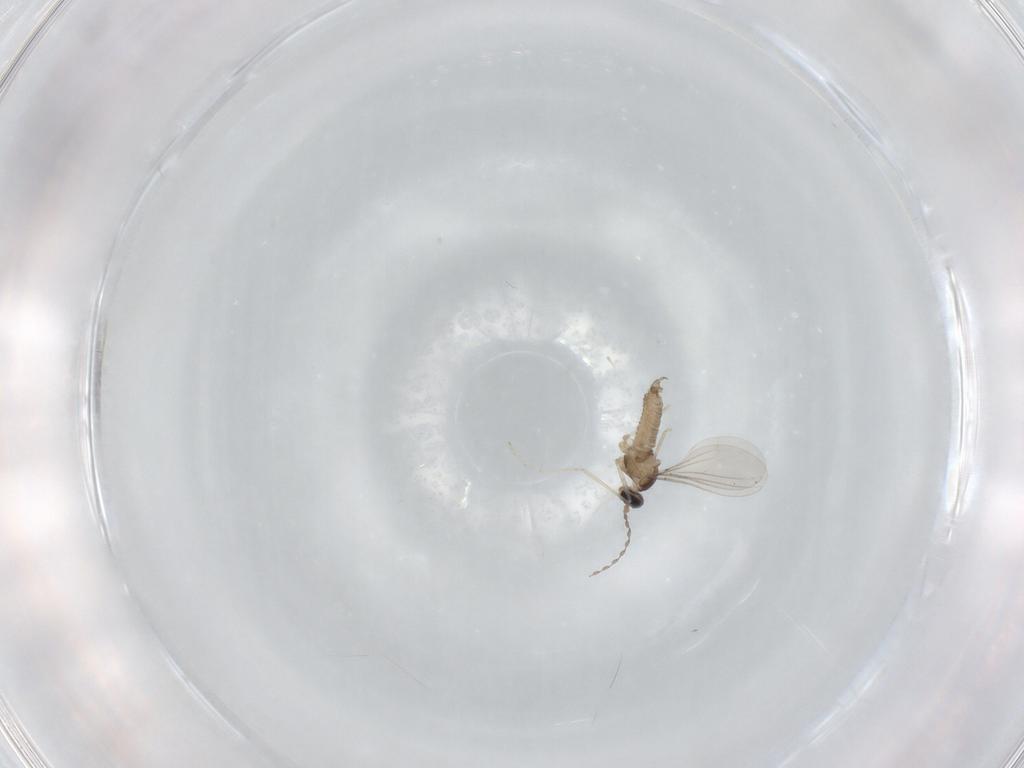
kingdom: Animalia
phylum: Arthropoda
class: Insecta
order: Diptera
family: Cecidomyiidae
